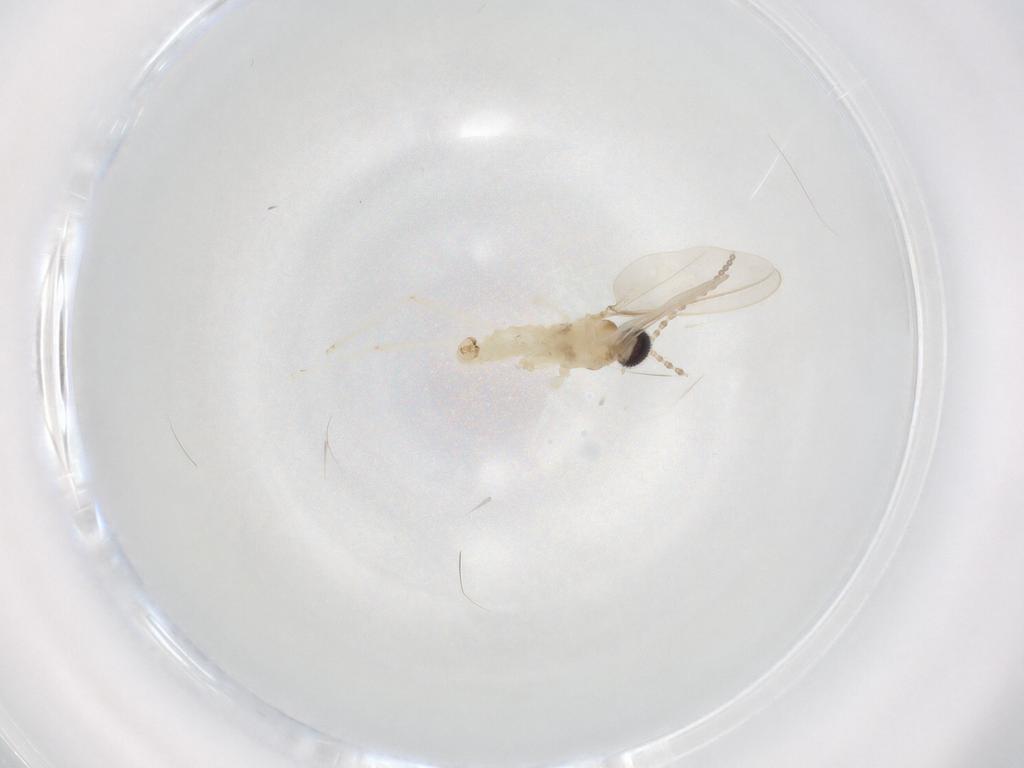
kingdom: Animalia
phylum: Arthropoda
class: Insecta
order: Diptera
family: Cecidomyiidae
